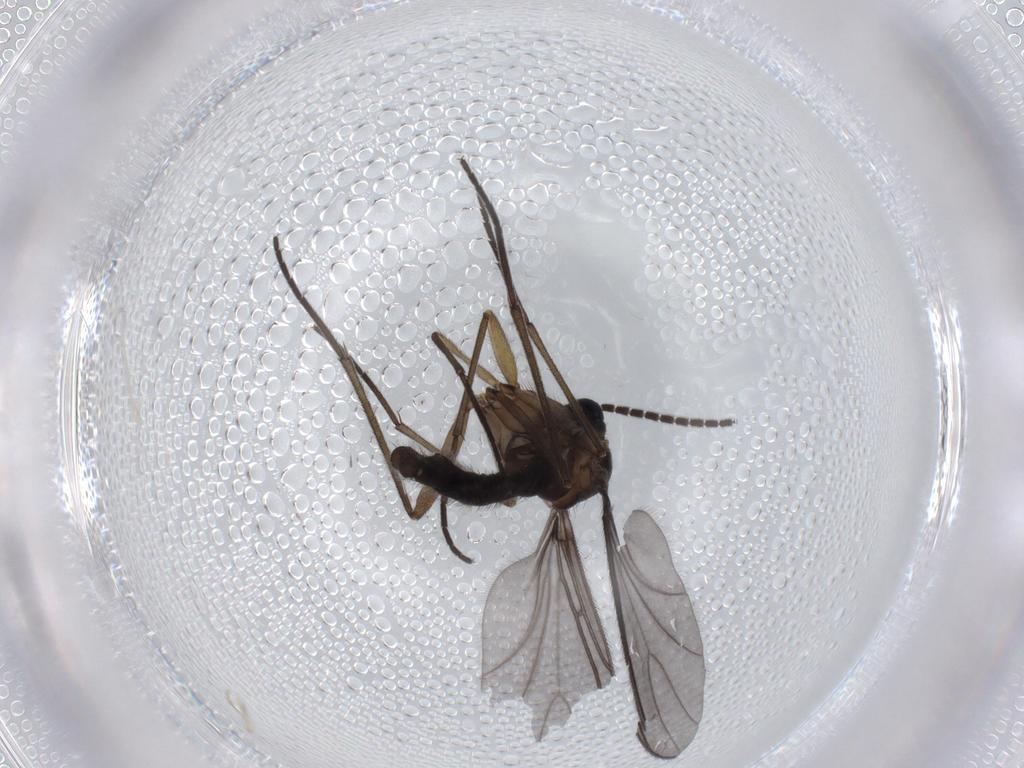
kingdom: Animalia
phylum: Arthropoda
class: Insecta
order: Diptera
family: Sciaridae
